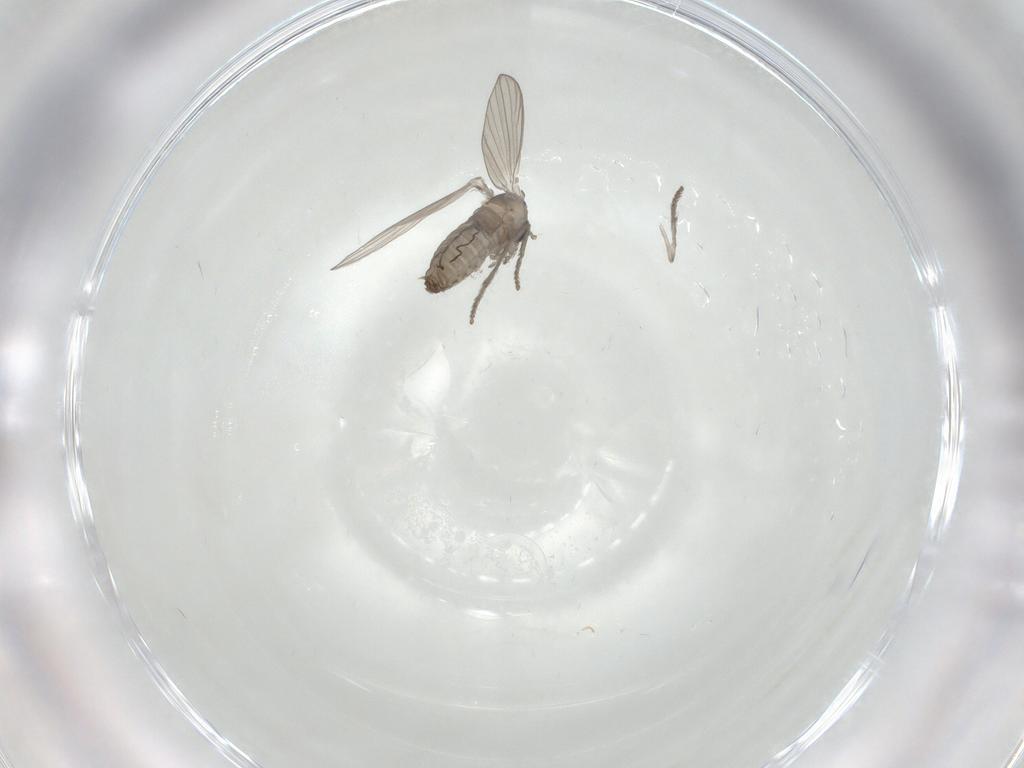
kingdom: Animalia
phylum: Arthropoda
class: Insecta
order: Diptera
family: Psychodidae
